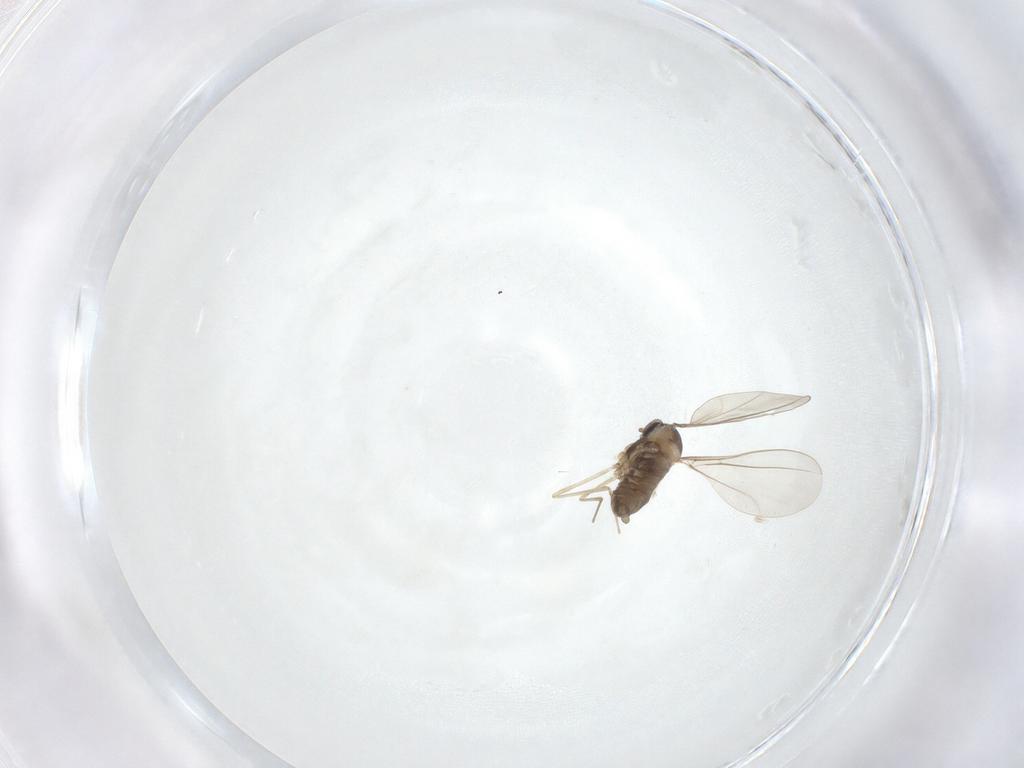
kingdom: Animalia
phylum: Arthropoda
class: Insecta
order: Diptera
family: Cecidomyiidae
